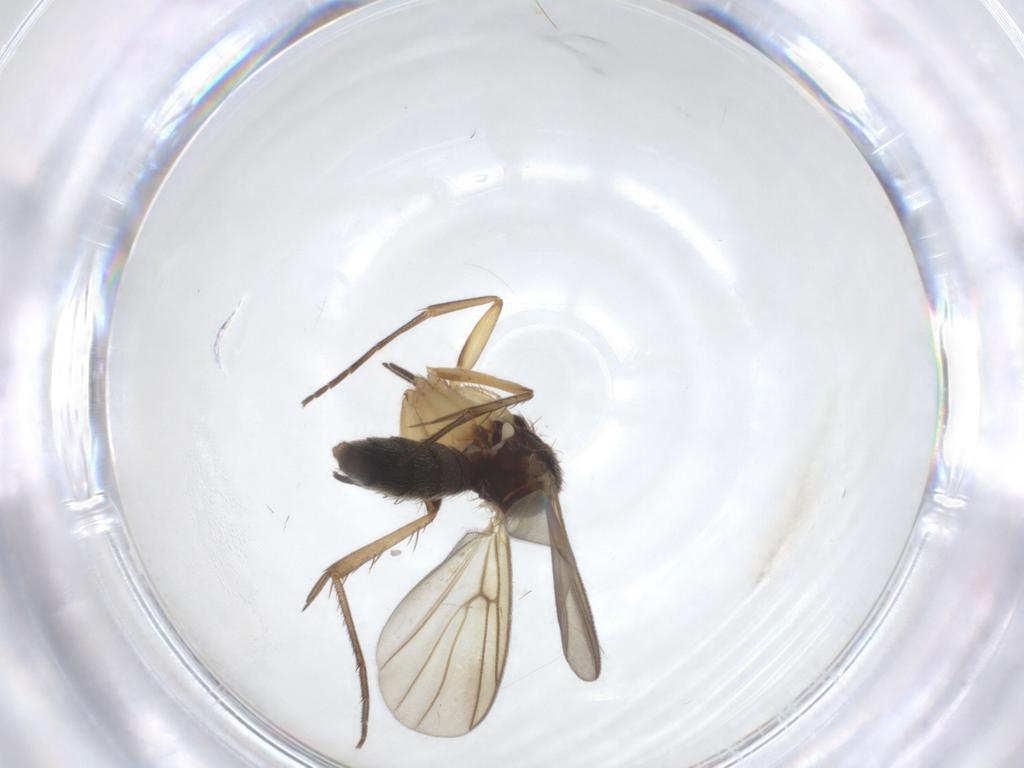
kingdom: Animalia
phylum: Arthropoda
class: Insecta
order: Diptera
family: Mycetophilidae
